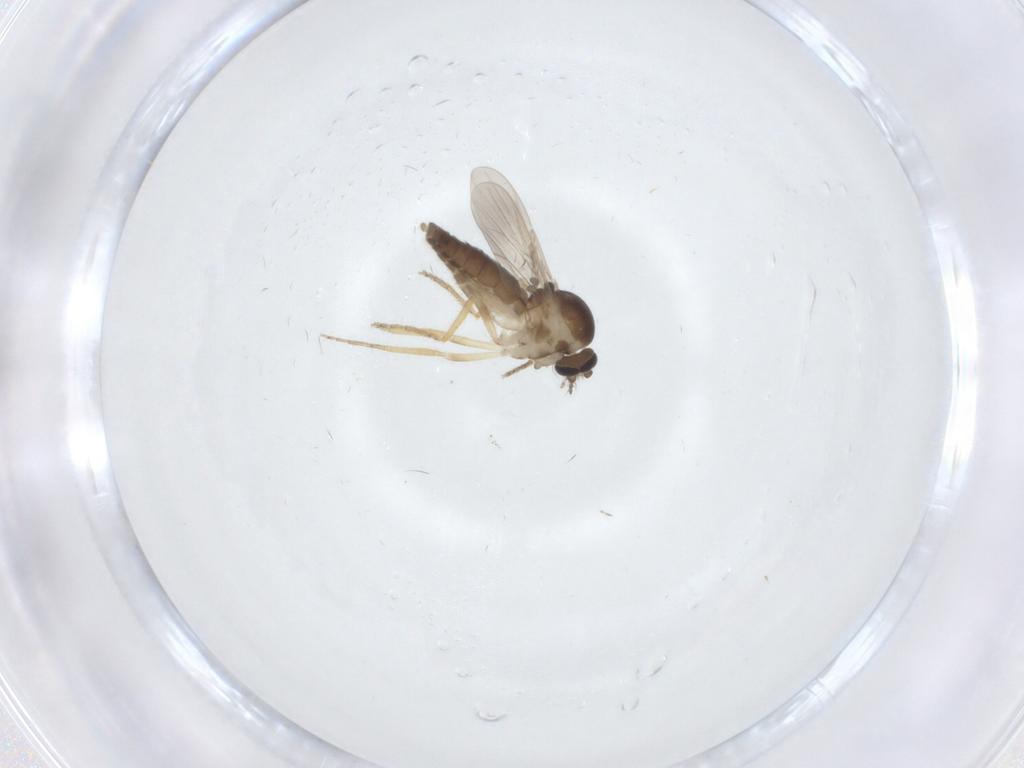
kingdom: Animalia
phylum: Arthropoda
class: Insecta
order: Diptera
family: Ceratopogonidae
